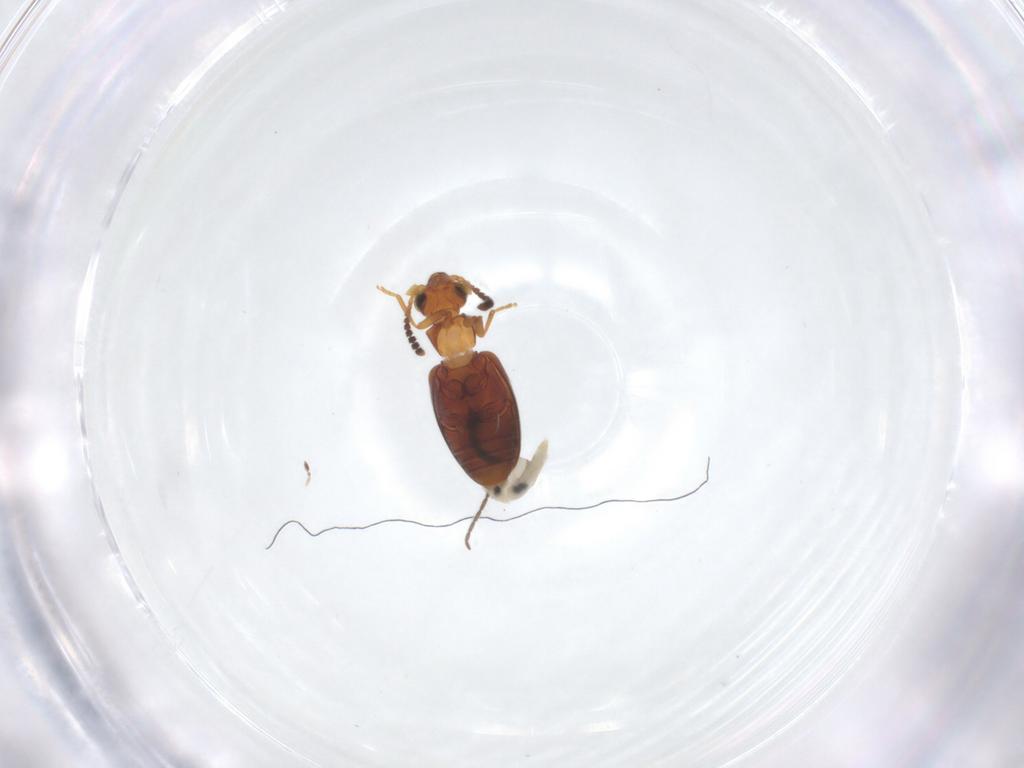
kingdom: Animalia
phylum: Arthropoda
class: Insecta
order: Coleoptera
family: Aderidae
